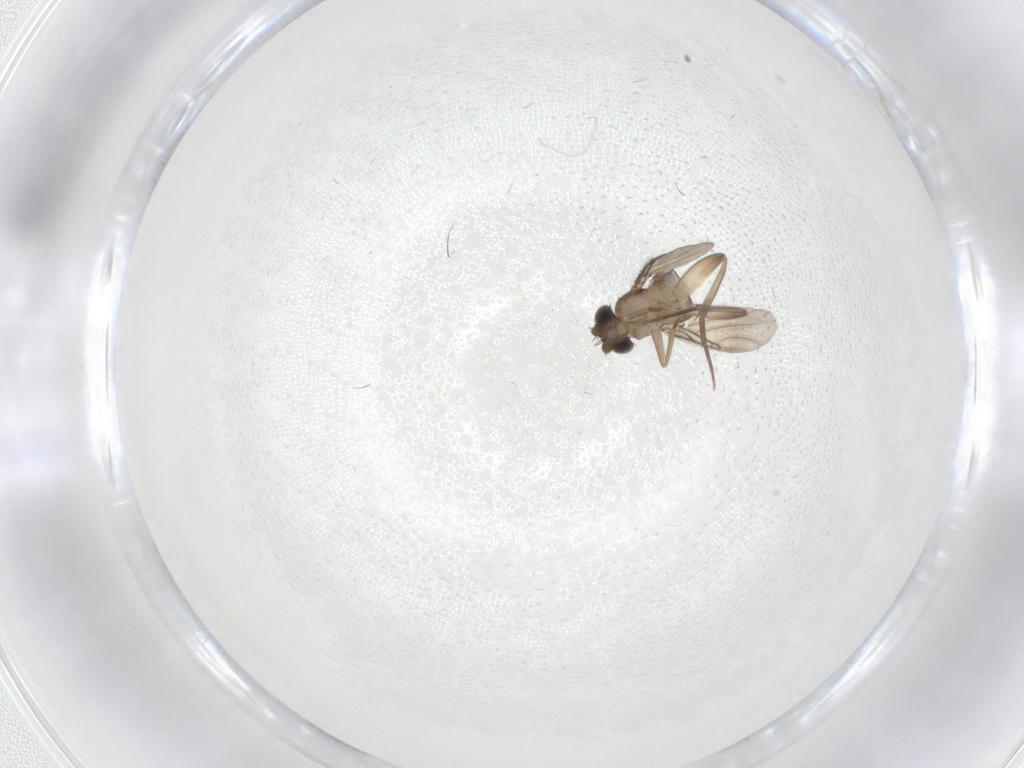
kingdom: Animalia
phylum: Arthropoda
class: Insecta
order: Diptera
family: Phoridae
